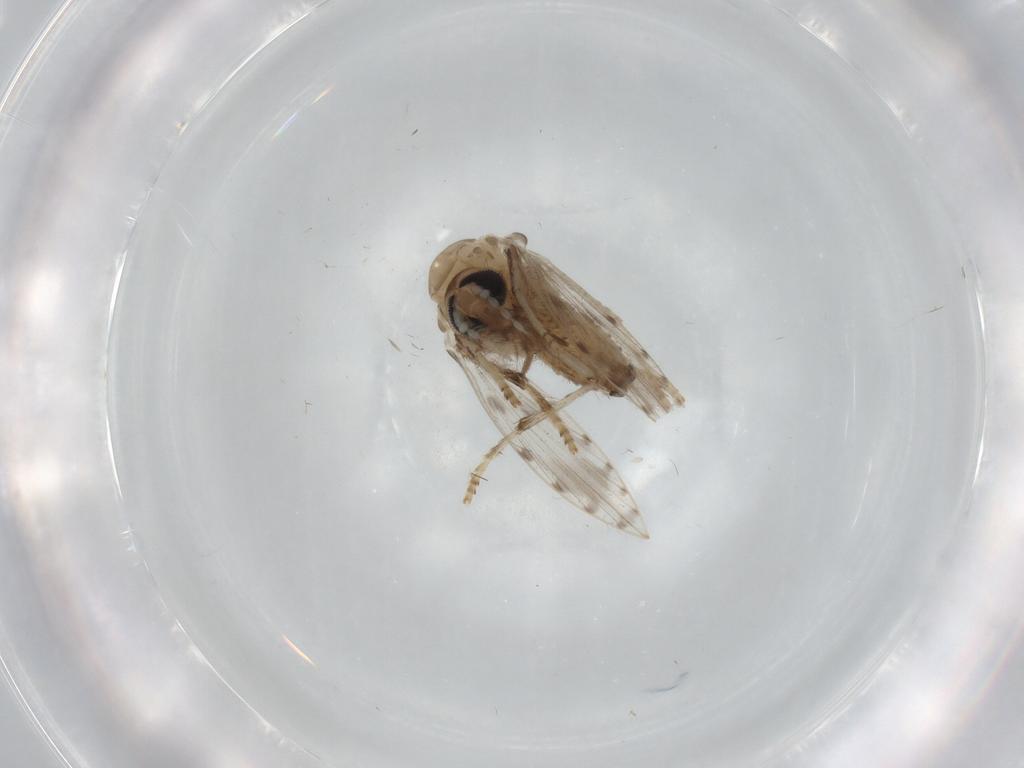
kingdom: Animalia
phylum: Arthropoda
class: Insecta
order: Diptera
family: Psychodidae
